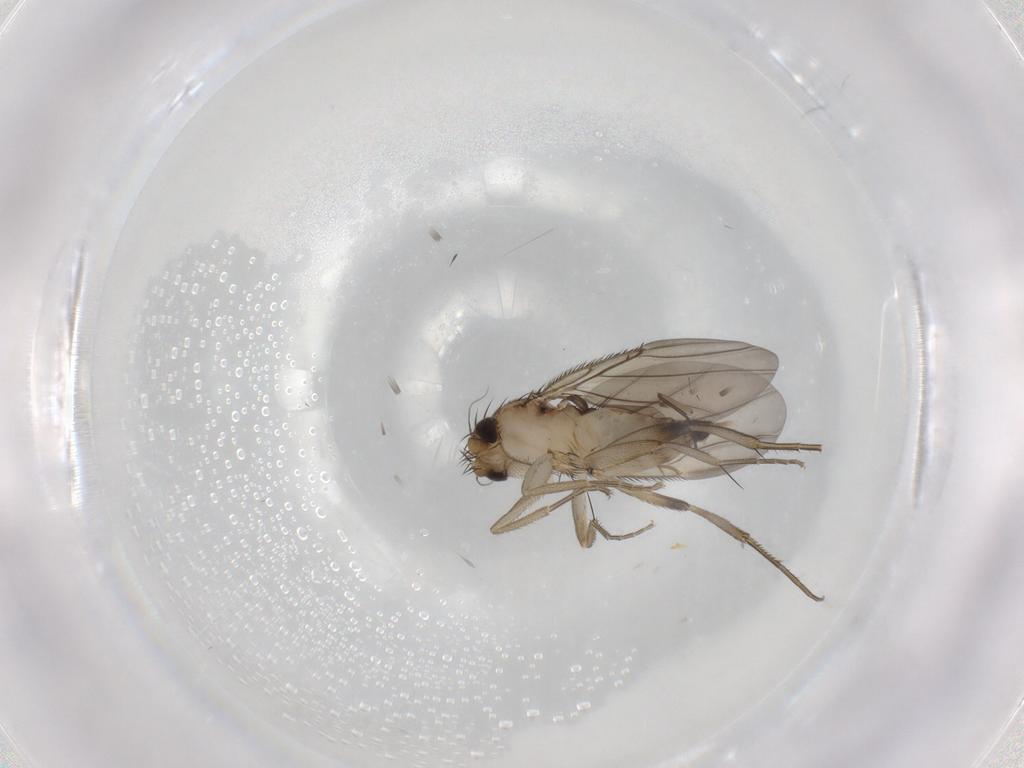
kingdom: Animalia
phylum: Arthropoda
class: Insecta
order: Diptera
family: Phoridae
